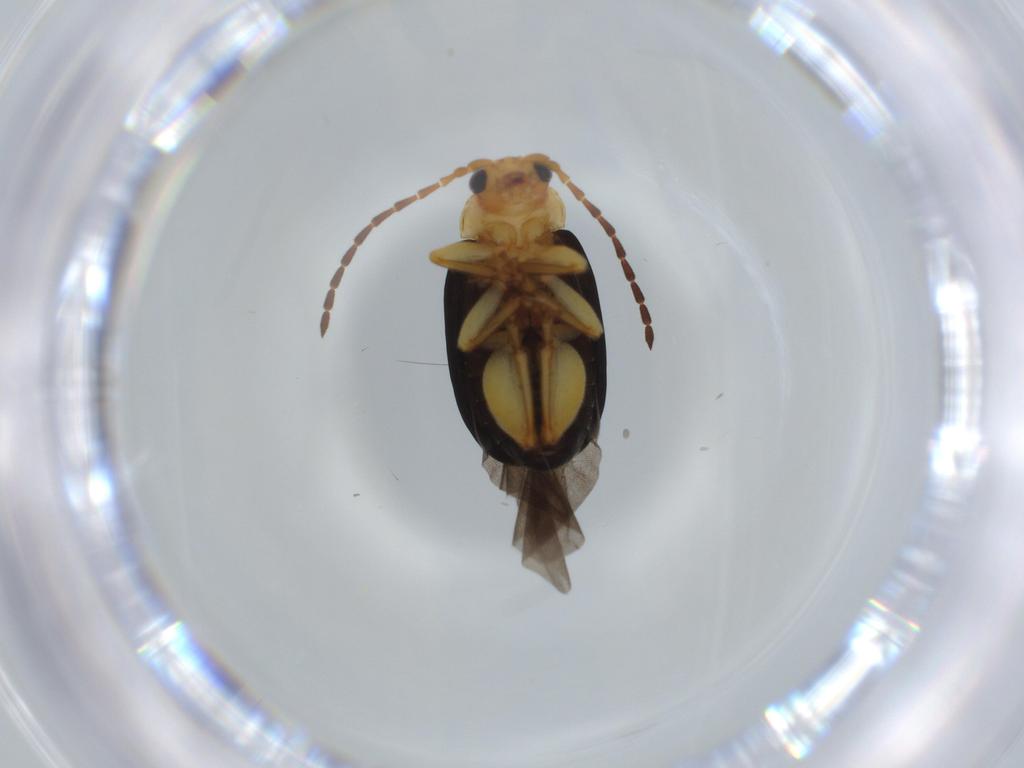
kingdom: Animalia
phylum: Arthropoda
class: Insecta
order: Coleoptera
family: Chrysomelidae
